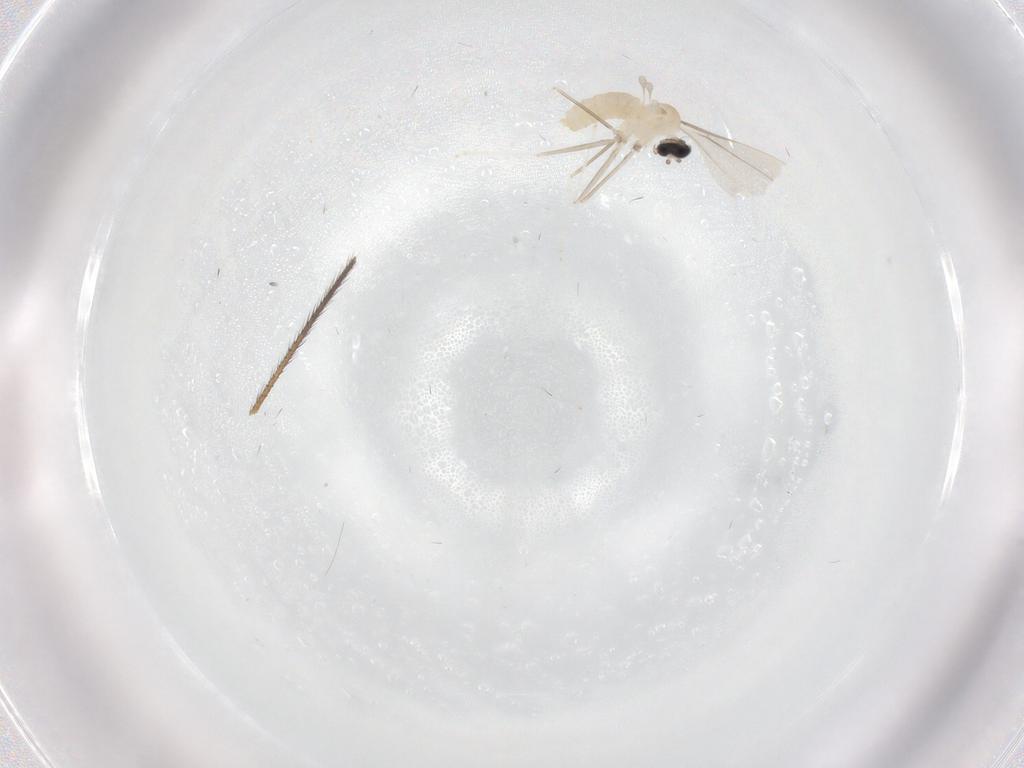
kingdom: Animalia
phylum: Arthropoda
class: Insecta
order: Diptera
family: Cecidomyiidae
